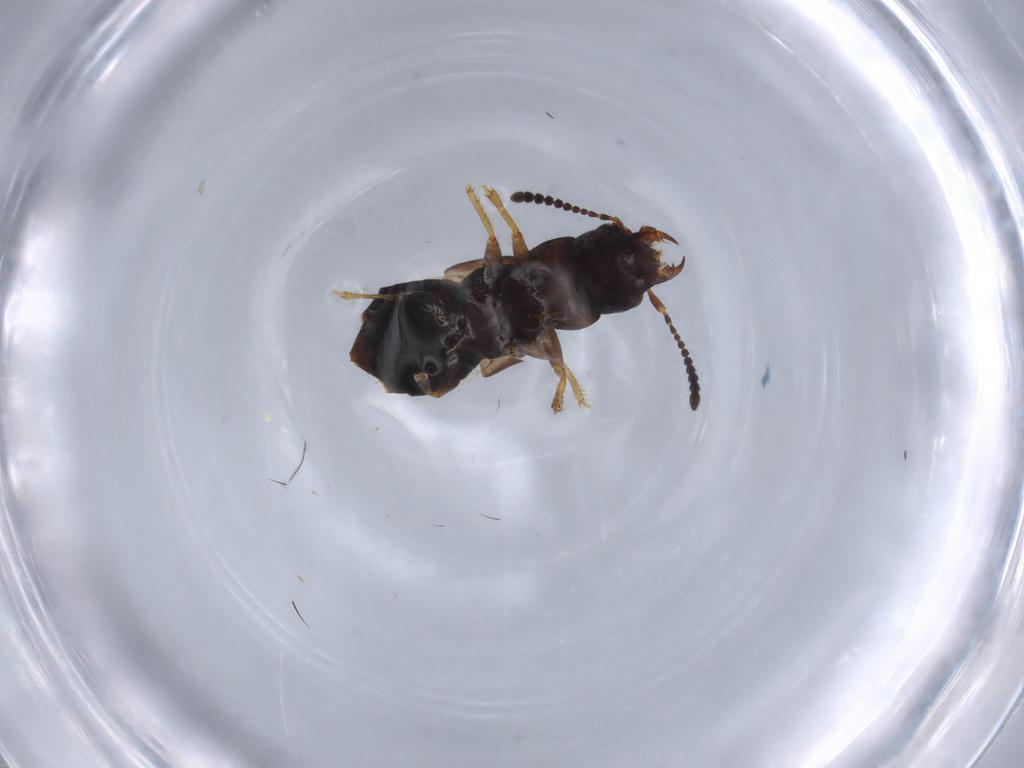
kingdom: Animalia
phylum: Arthropoda
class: Insecta
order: Coleoptera
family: Staphylinidae
